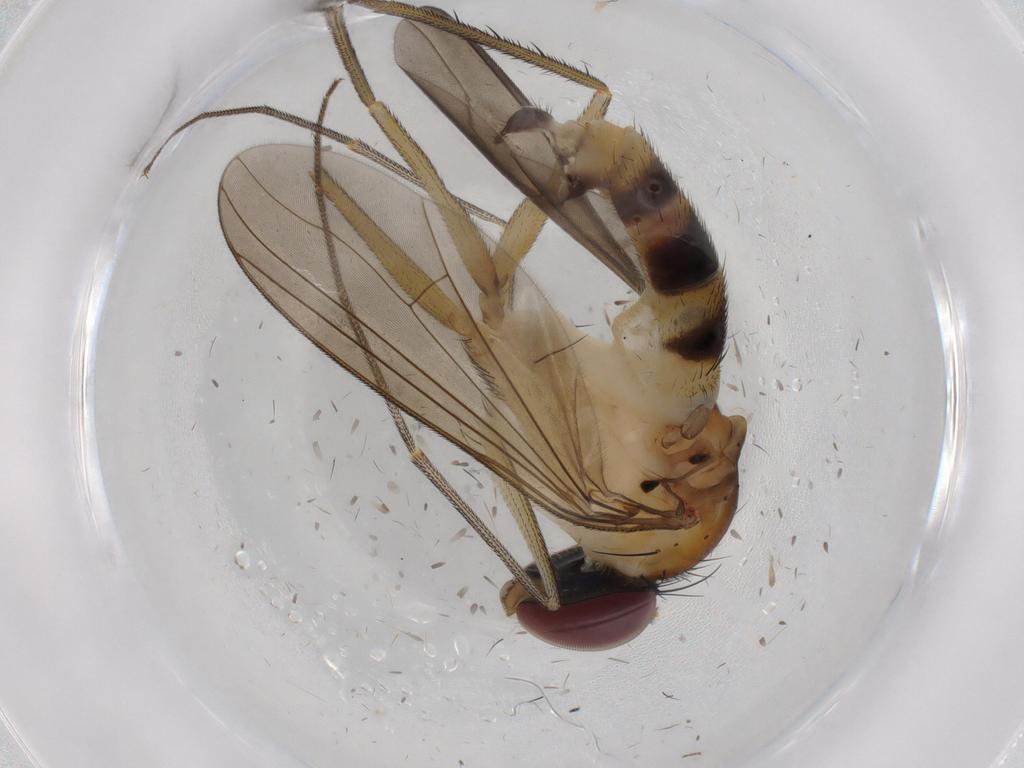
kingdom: Animalia
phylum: Arthropoda
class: Insecta
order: Diptera
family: Dolichopodidae
